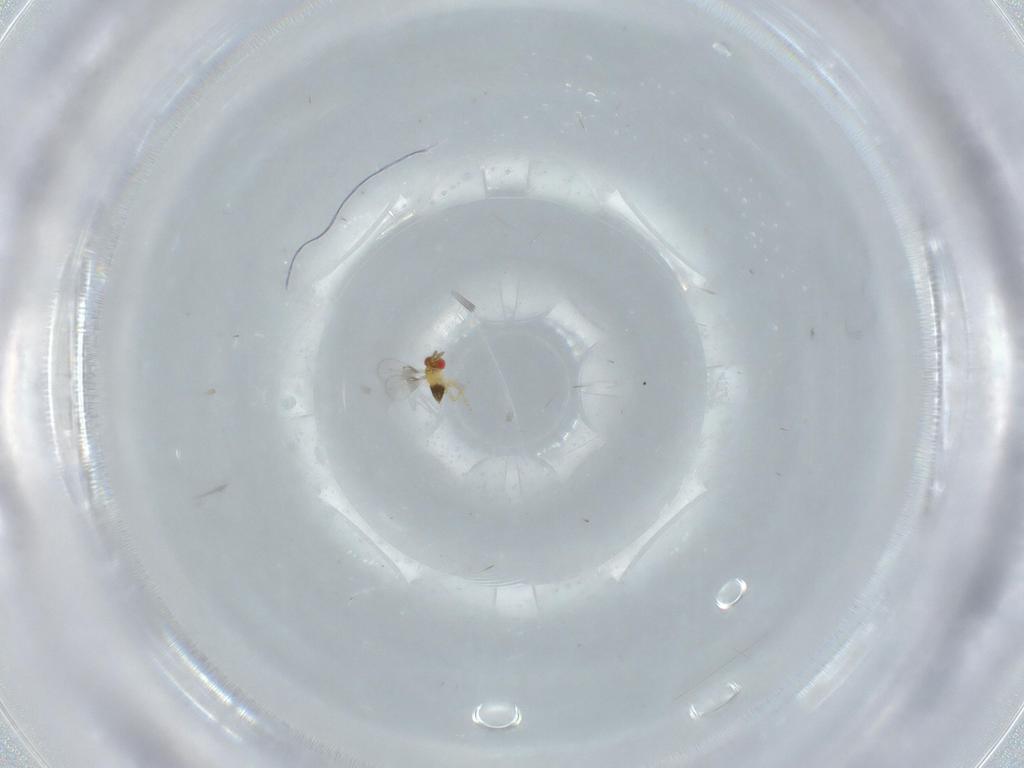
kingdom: Animalia
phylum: Arthropoda
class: Insecta
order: Hymenoptera
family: Trichogrammatidae
